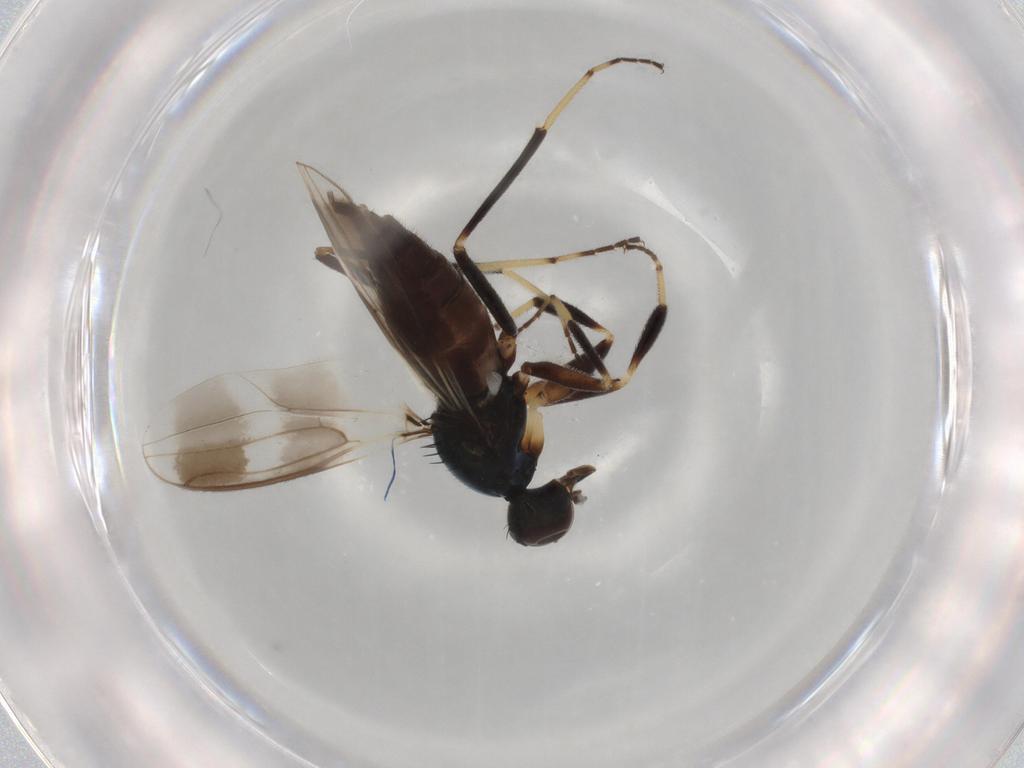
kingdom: Animalia
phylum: Arthropoda
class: Insecta
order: Diptera
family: Hybotidae
